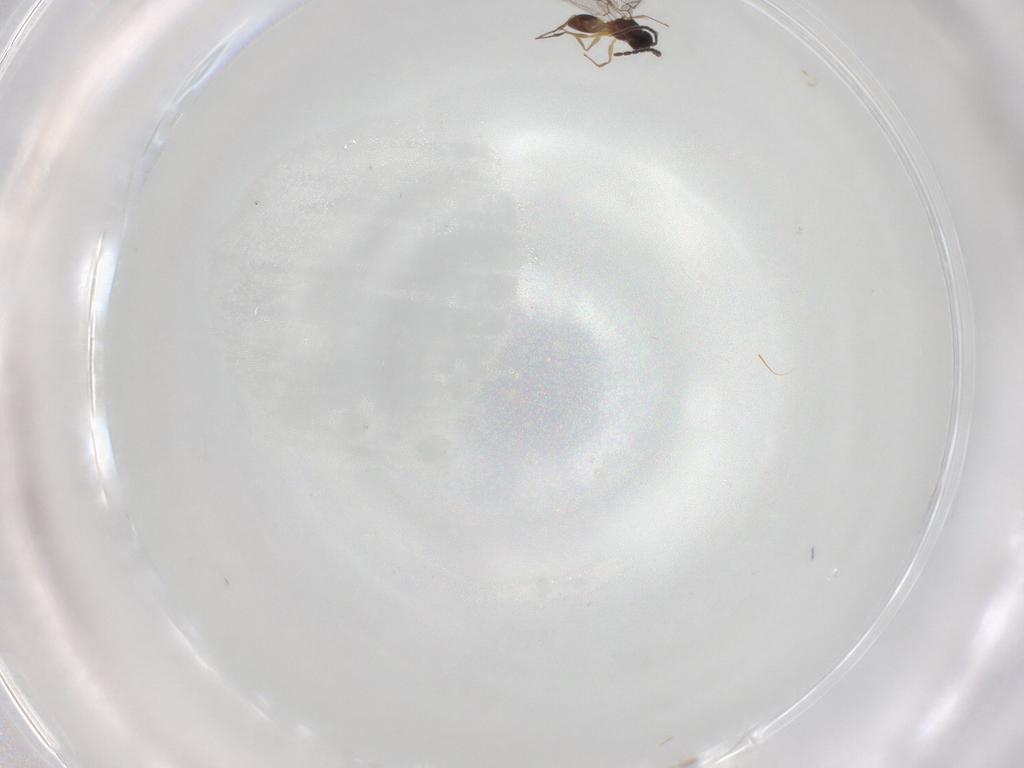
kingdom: Animalia
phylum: Arthropoda
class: Insecta
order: Hymenoptera
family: Figitidae
